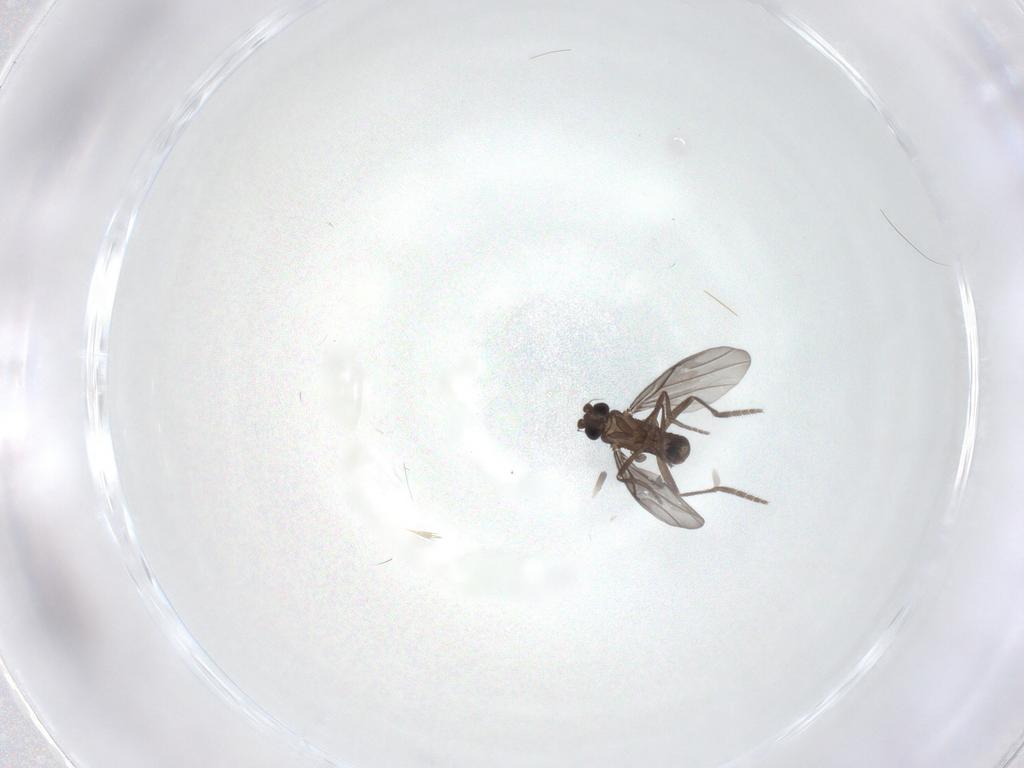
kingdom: Animalia
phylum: Arthropoda
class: Insecta
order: Diptera
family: Phoridae
